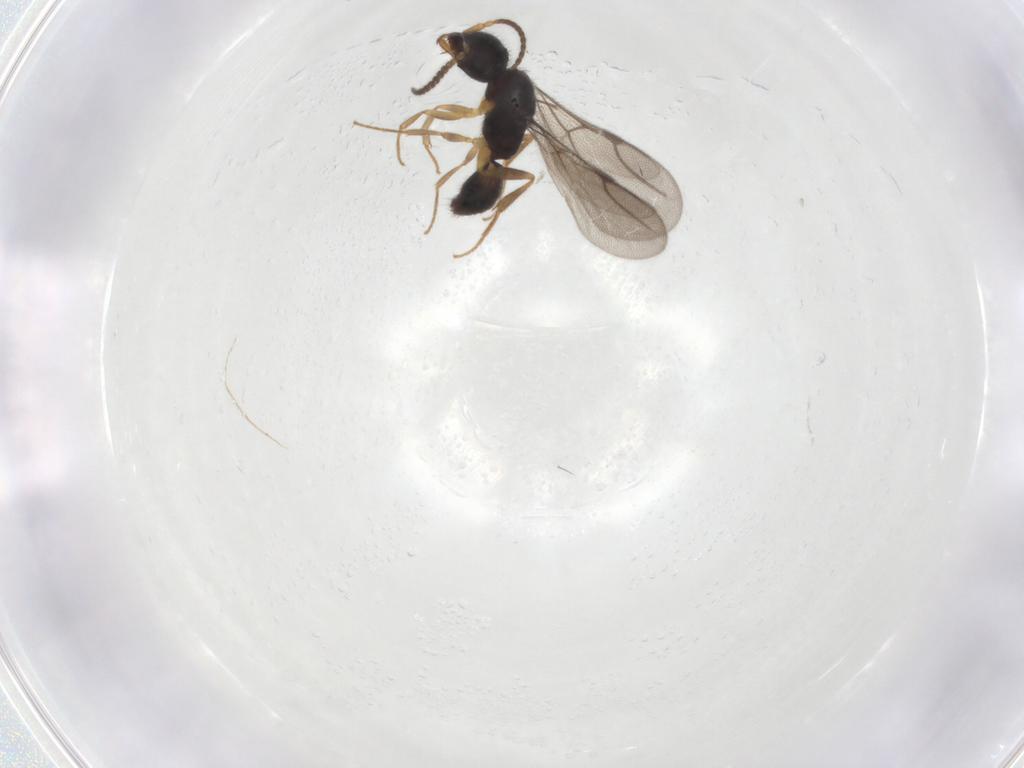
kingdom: Animalia
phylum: Arthropoda
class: Insecta
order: Hymenoptera
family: Bethylidae
